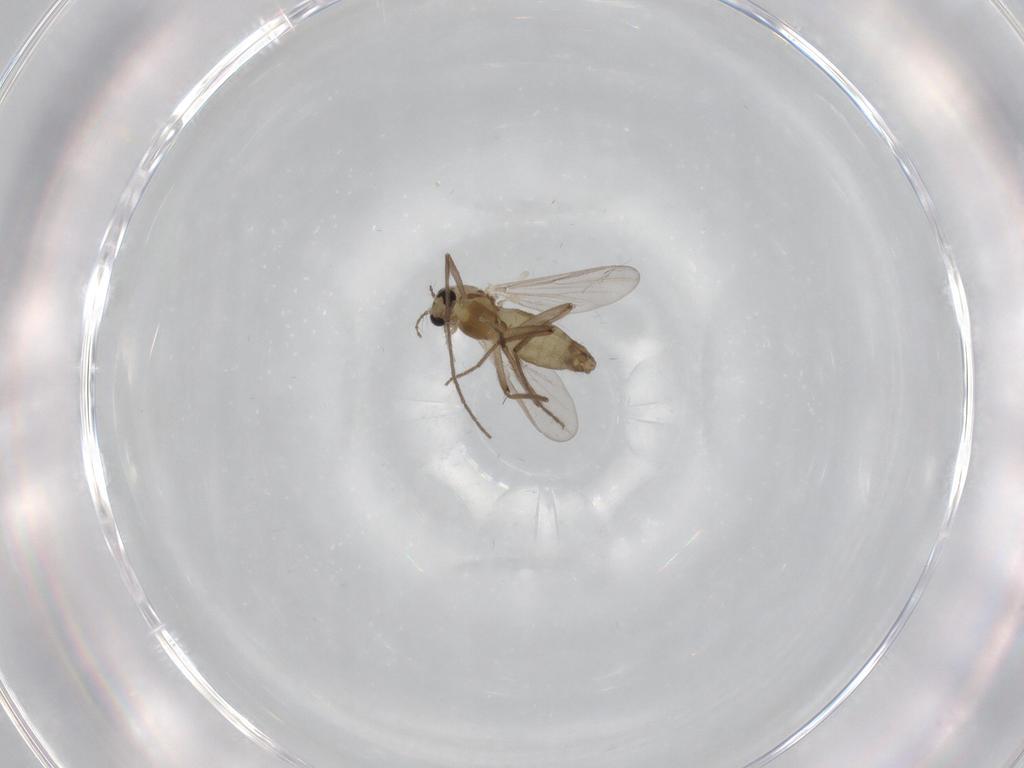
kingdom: Animalia
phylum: Arthropoda
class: Insecta
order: Diptera
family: Chironomidae
